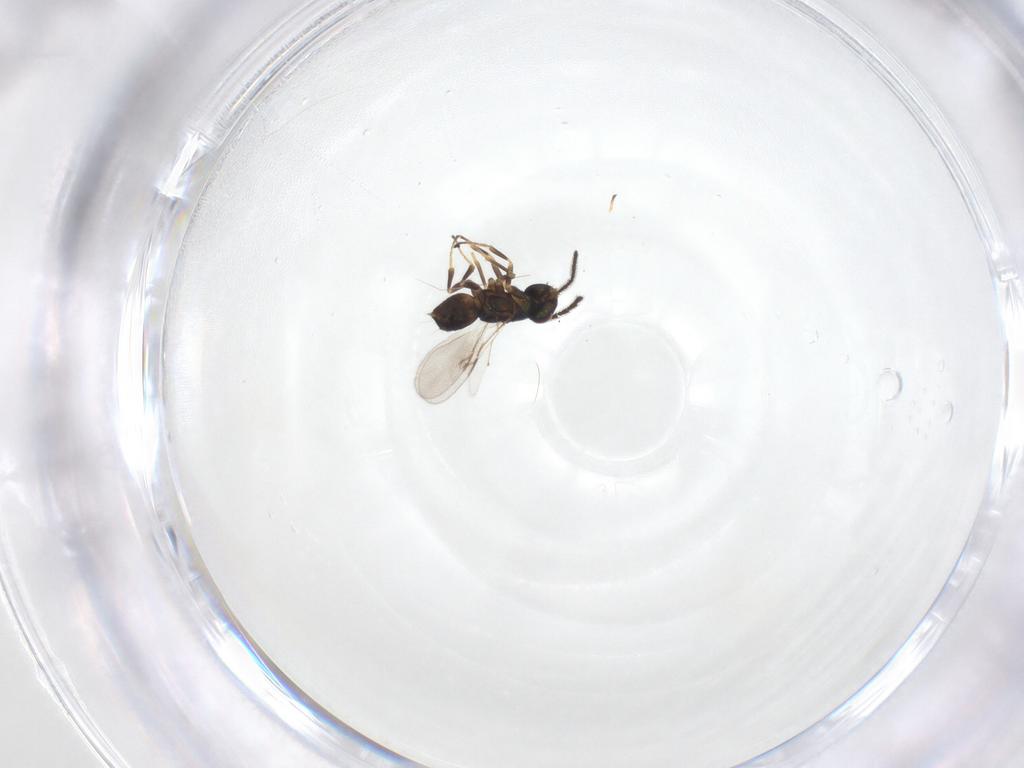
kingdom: Animalia
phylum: Arthropoda
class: Insecta
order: Hymenoptera
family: Encyrtidae
